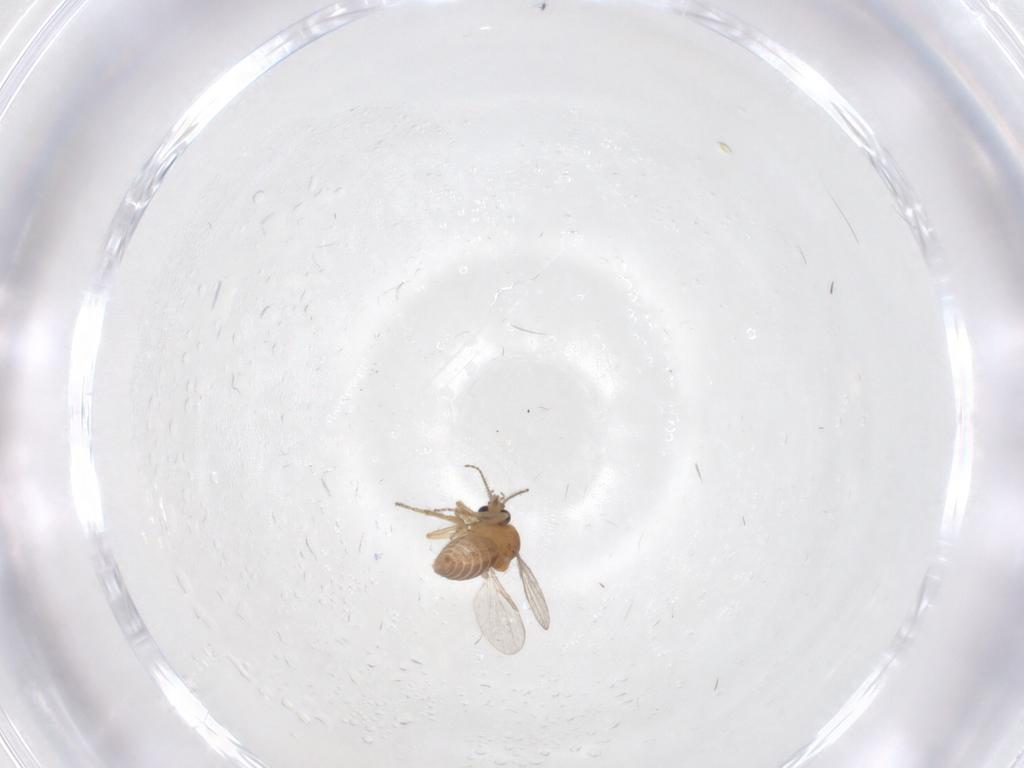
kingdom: Animalia
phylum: Arthropoda
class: Insecta
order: Diptera
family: Ceratopogonidae
